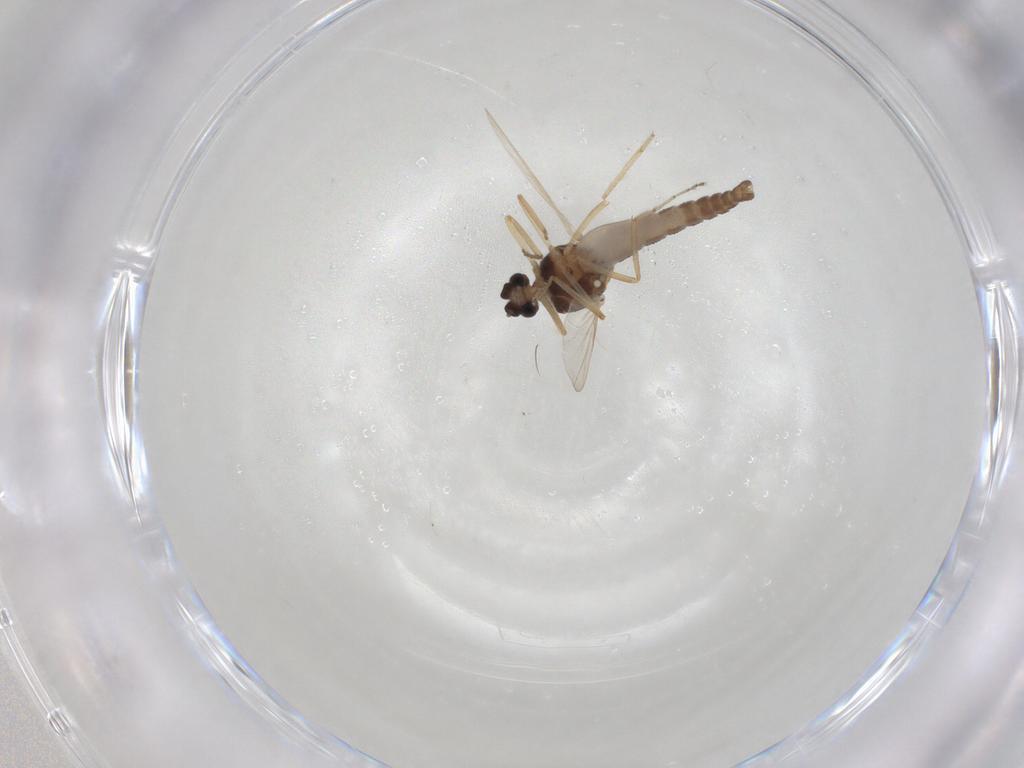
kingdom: Animalia
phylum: Arthropoda
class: Insecta
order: Diptera
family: Ceratopogonidae
